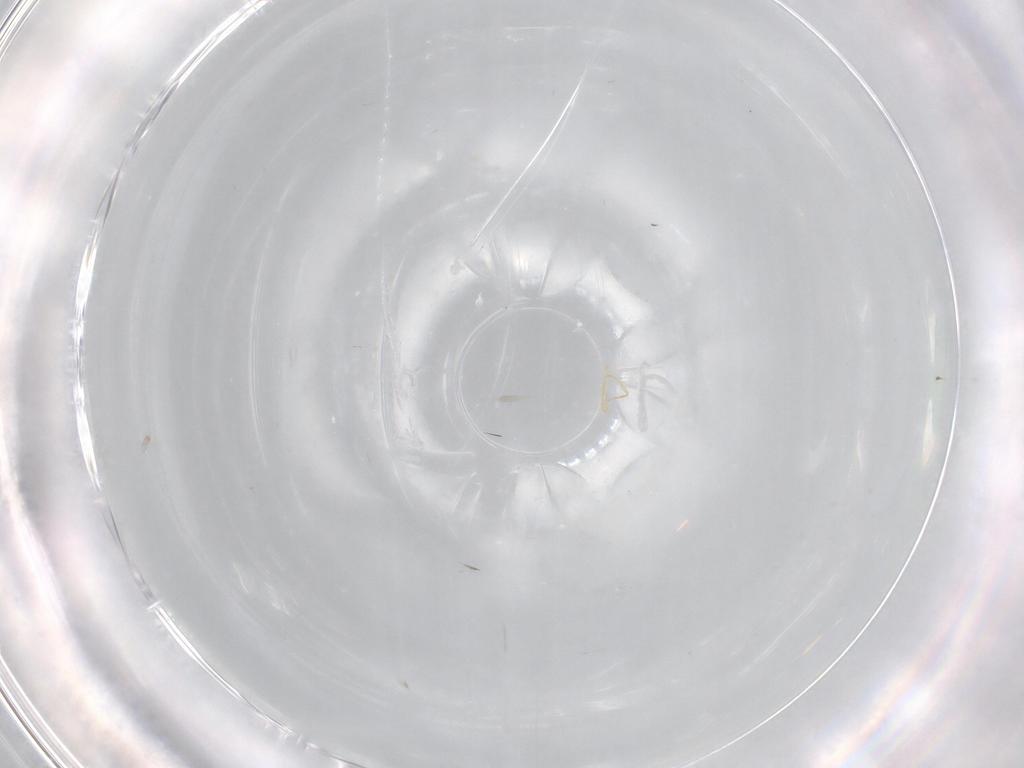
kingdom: Animalia
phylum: Arthropoda
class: Insecta
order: Diptera
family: Cecidomyiidae
